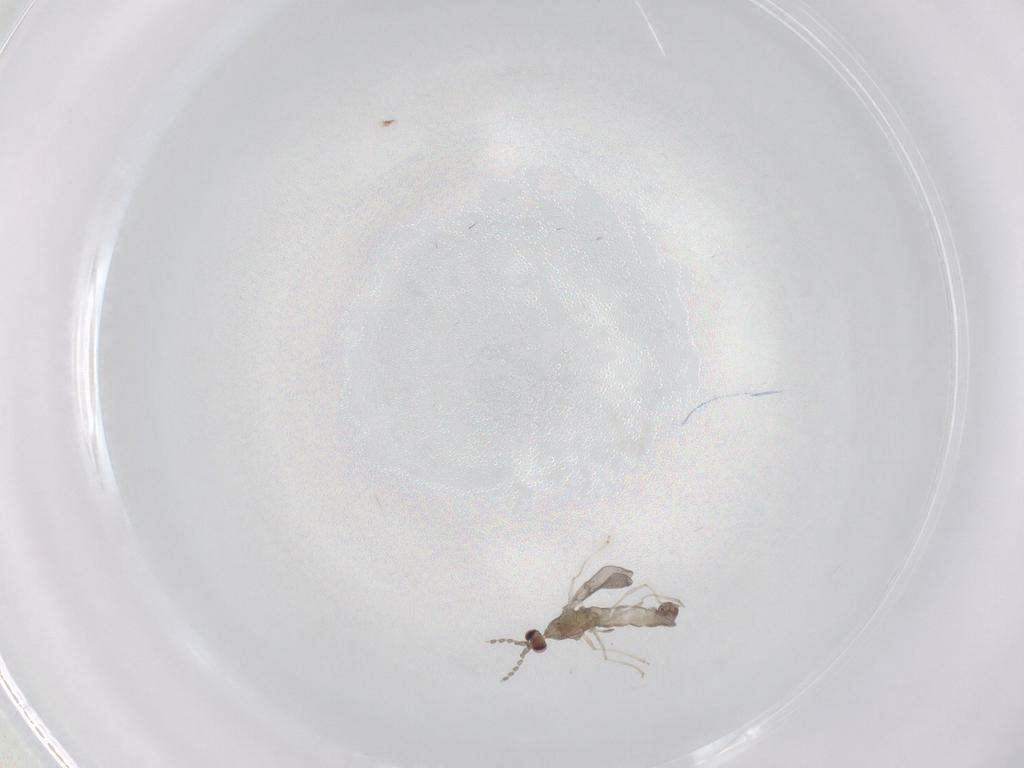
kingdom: Animalia
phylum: Arthropoda
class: Insecta
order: Diptera
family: Cecidomyiidae
